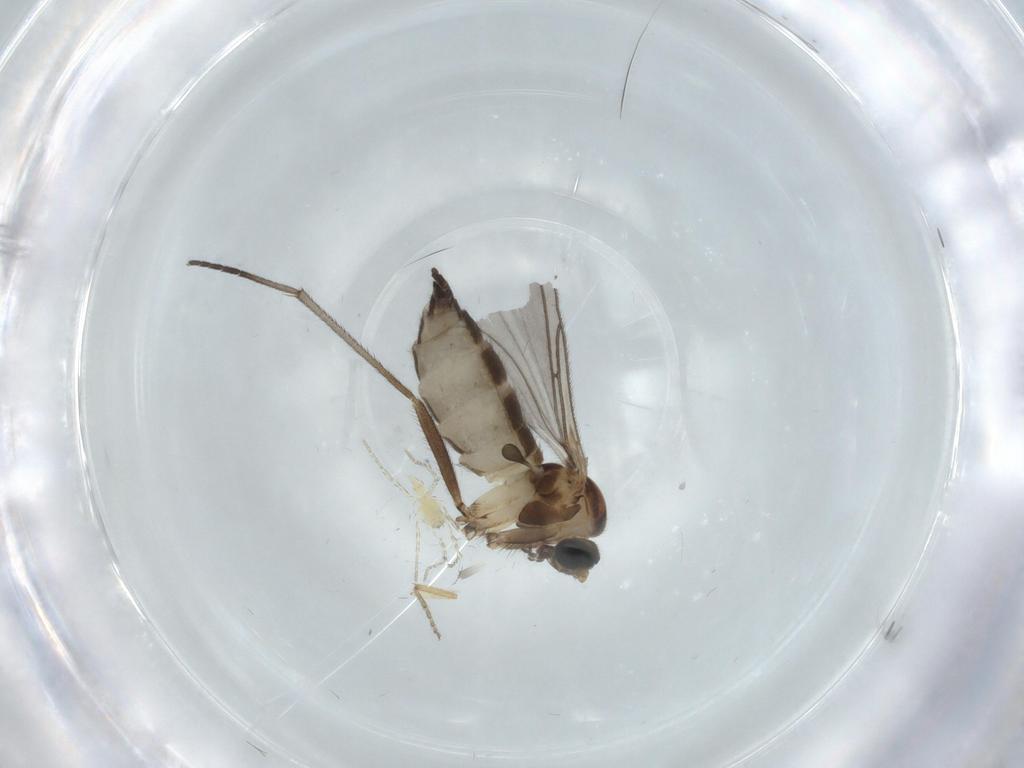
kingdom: Animalia
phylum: Arthropoda
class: Insecta
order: Diptera
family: Sciaridae
